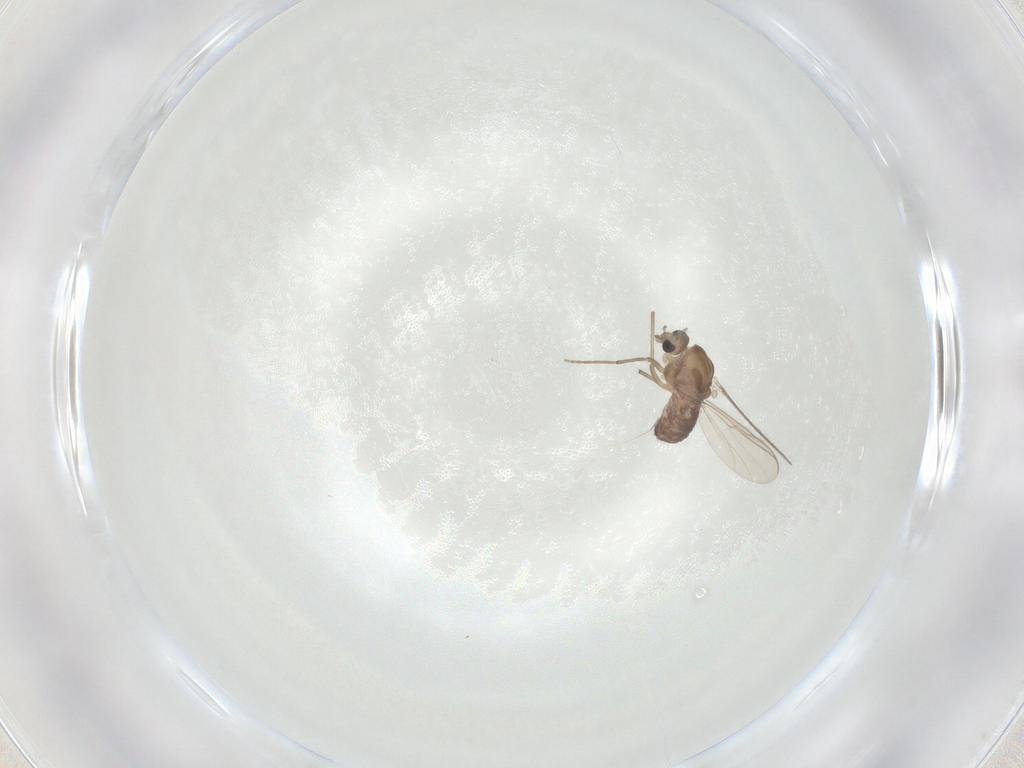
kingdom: Animalia
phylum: Arthropoda
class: Insecta
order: Diptera
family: Chironomidae
